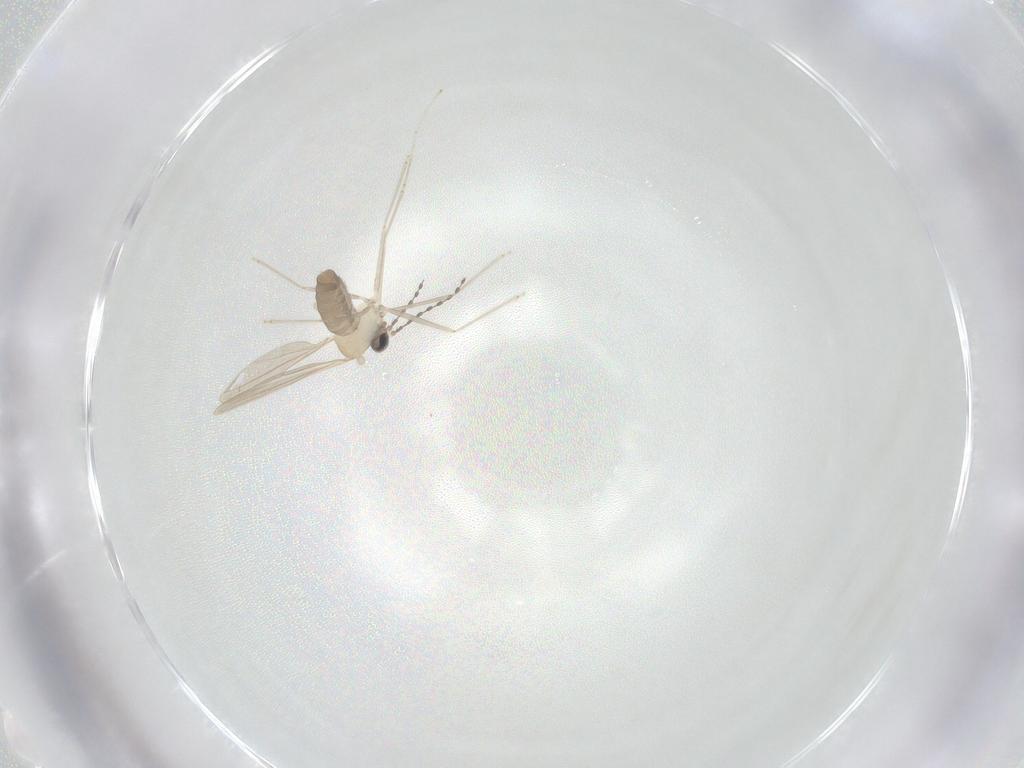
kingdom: Animalia
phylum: Arthropoda
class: Insecta
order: Diptera
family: Cecidomyiidae
